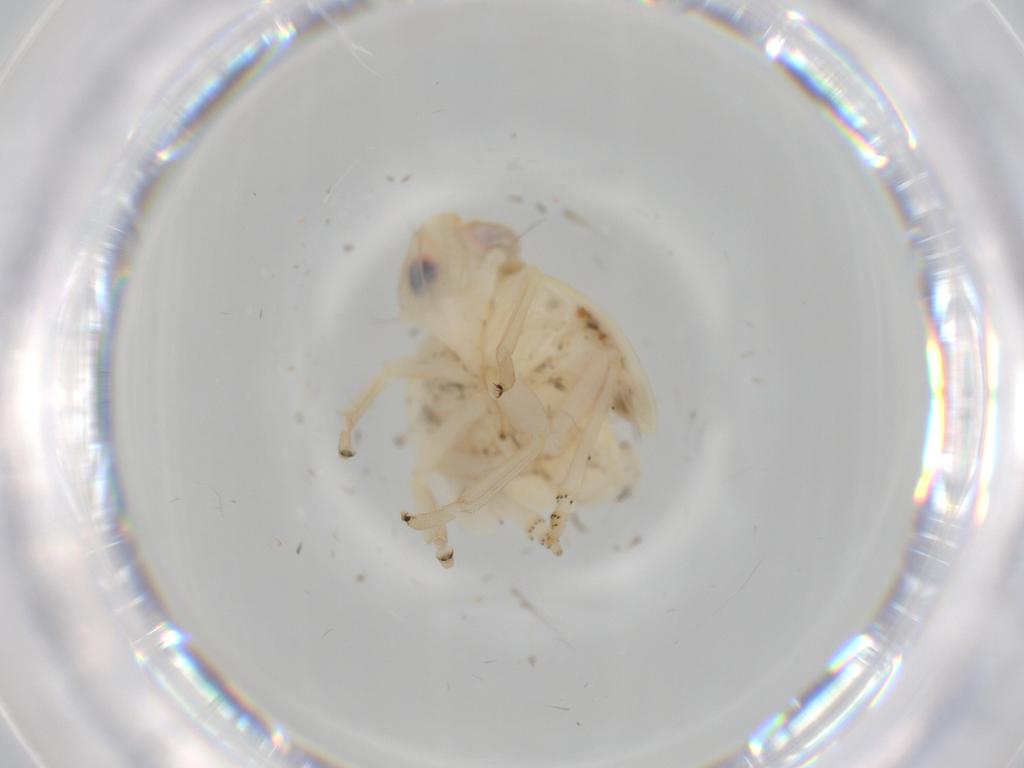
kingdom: Animalia
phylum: Arthropoda
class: Insecta
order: Hemiptera
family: Nogodinidae
